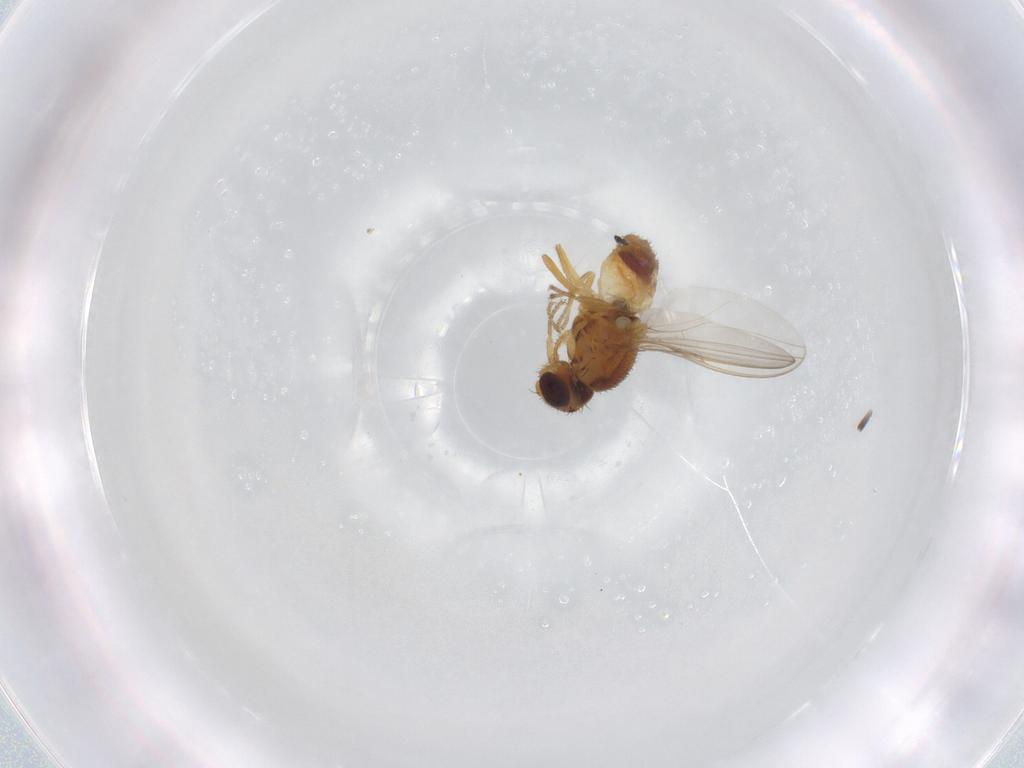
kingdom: Animalia
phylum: Arthropoda
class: Insecta
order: Diptera
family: Chloropidae
